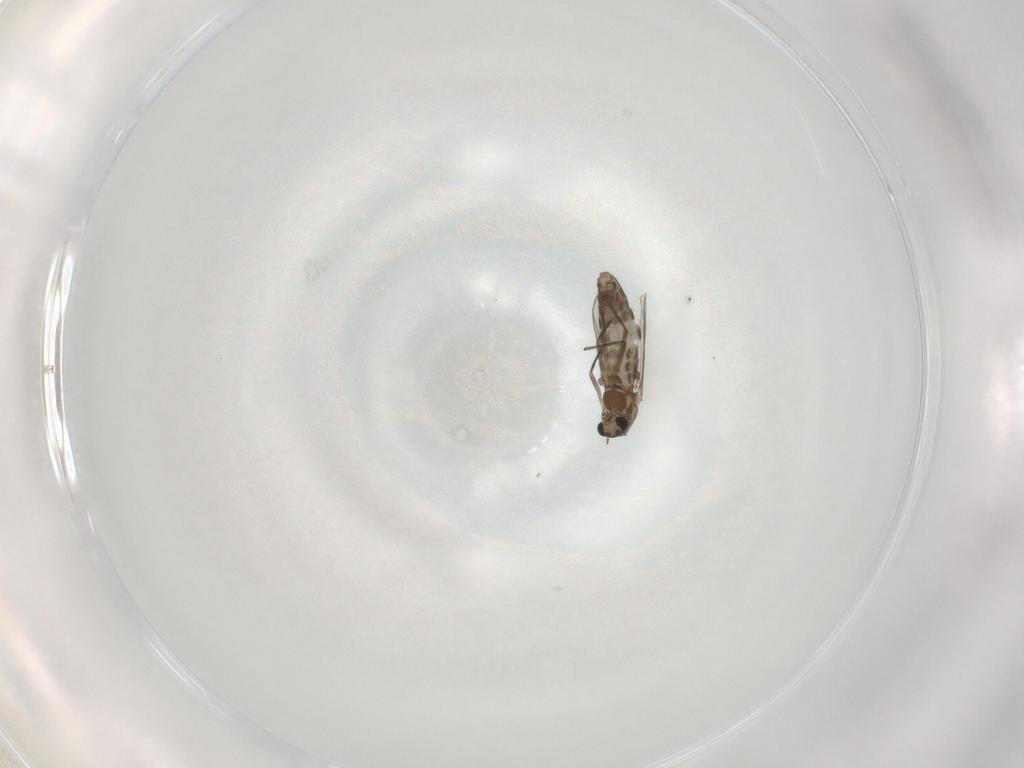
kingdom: Animalia
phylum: Arthropoda
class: Insecta
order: Diptera
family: Chironomidae
